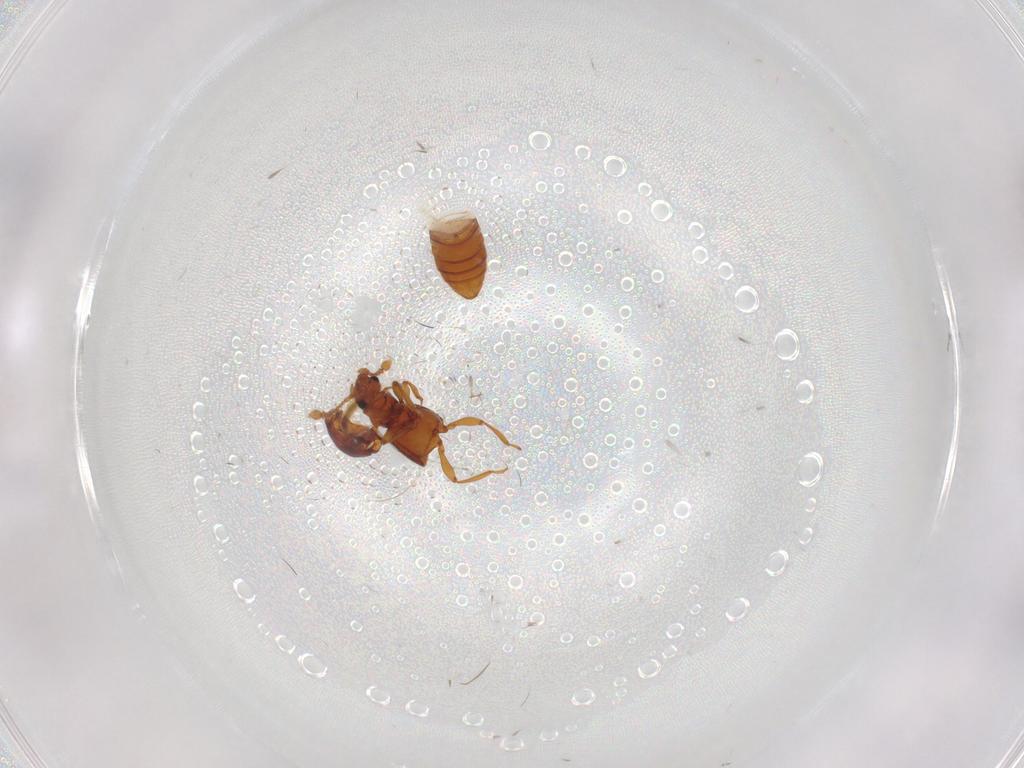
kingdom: Animalia
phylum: Arthropoda
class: Insecta
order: Coleoptera
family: Staphylinidae
